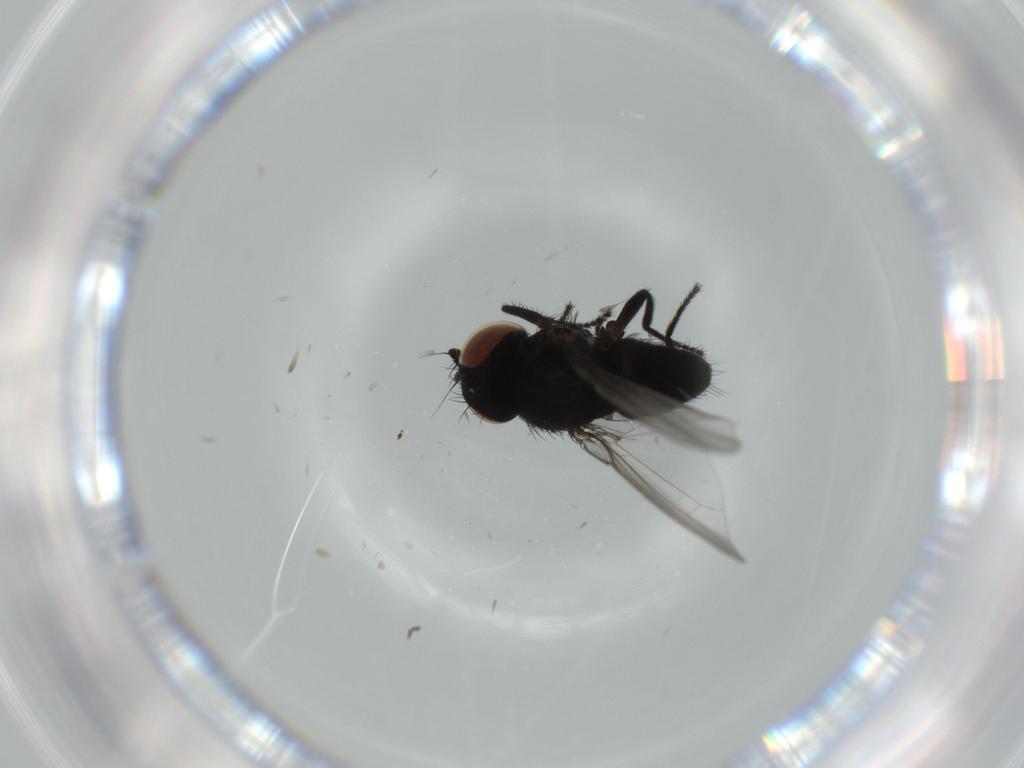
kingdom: Animalia
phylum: Arthropoda
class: Insecta
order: Diptera
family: Milichiidae
